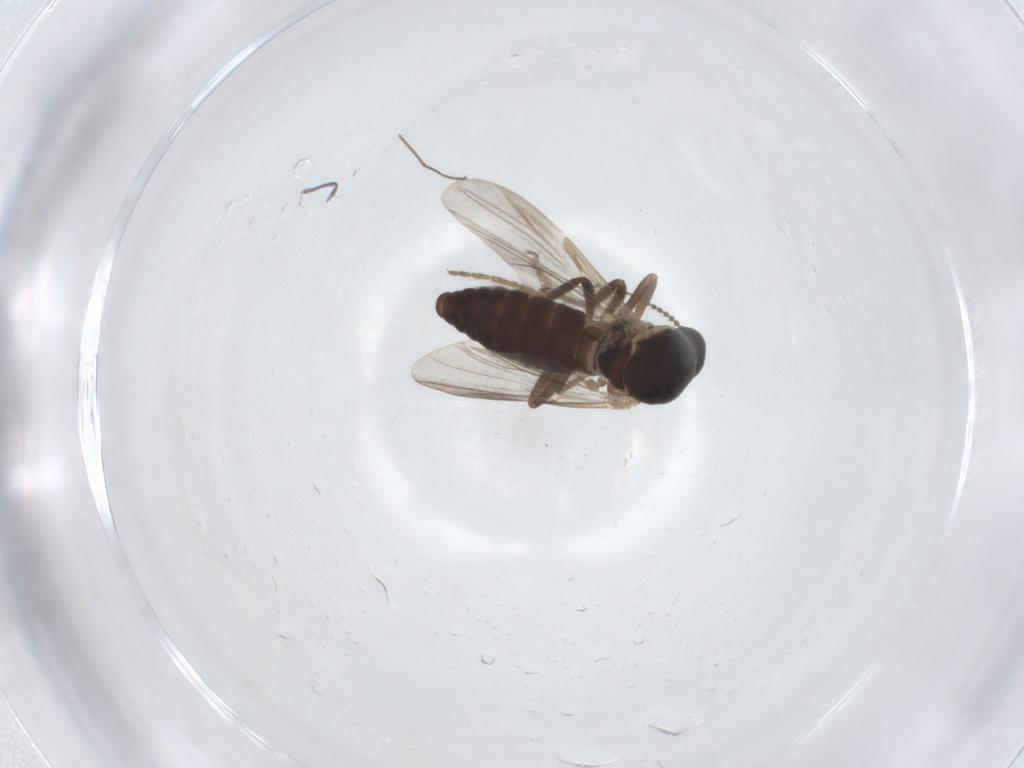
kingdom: Animalia
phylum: Arthropoda
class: Insecta
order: Diptera
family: Ceratopogonidae
